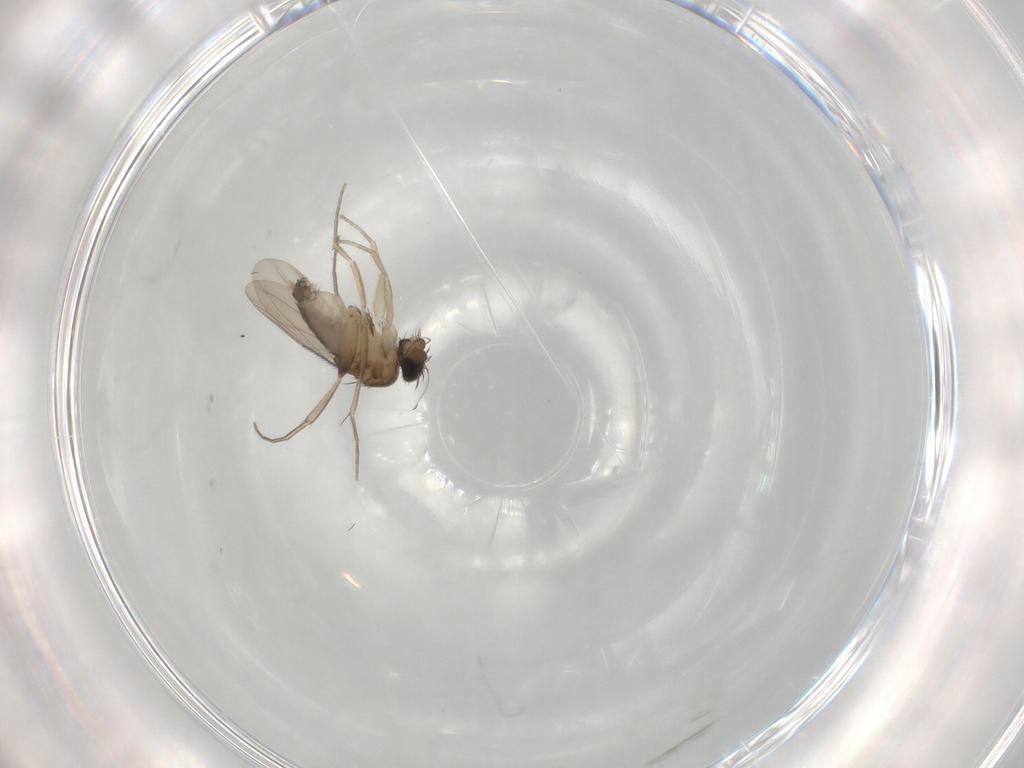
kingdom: Animalia
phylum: Arthropoda
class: Insecta
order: Diptera
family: Phoridae
